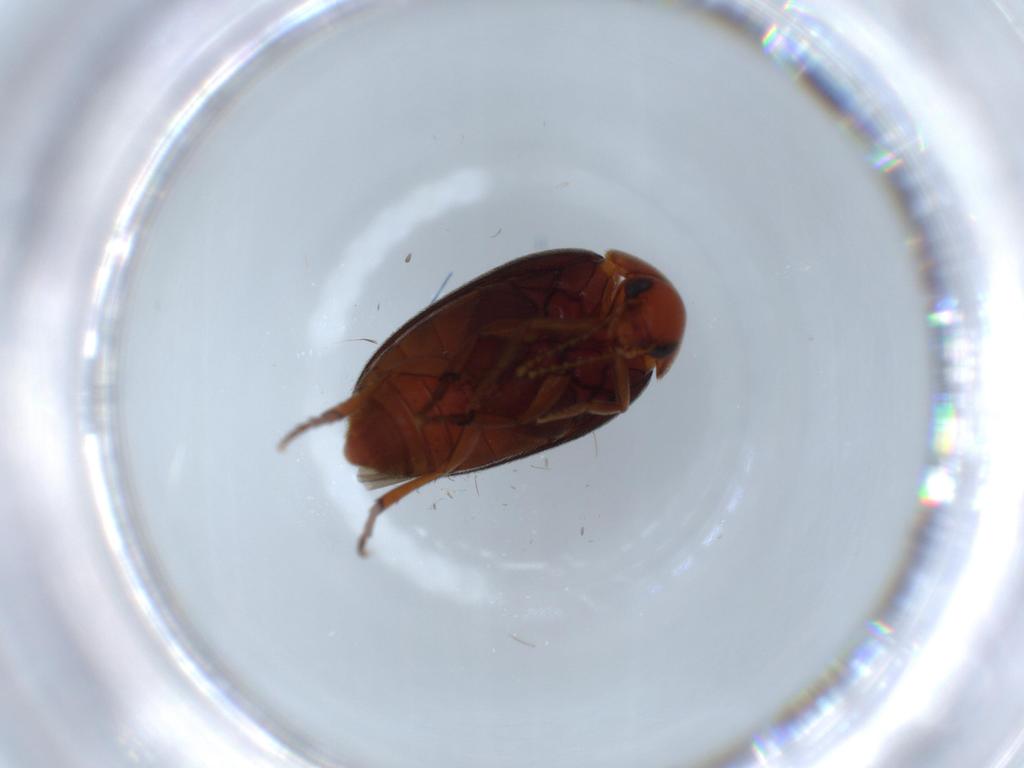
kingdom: Animalia
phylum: Arthropoda
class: Insecta
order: Coleoptera
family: Eucinetidae
